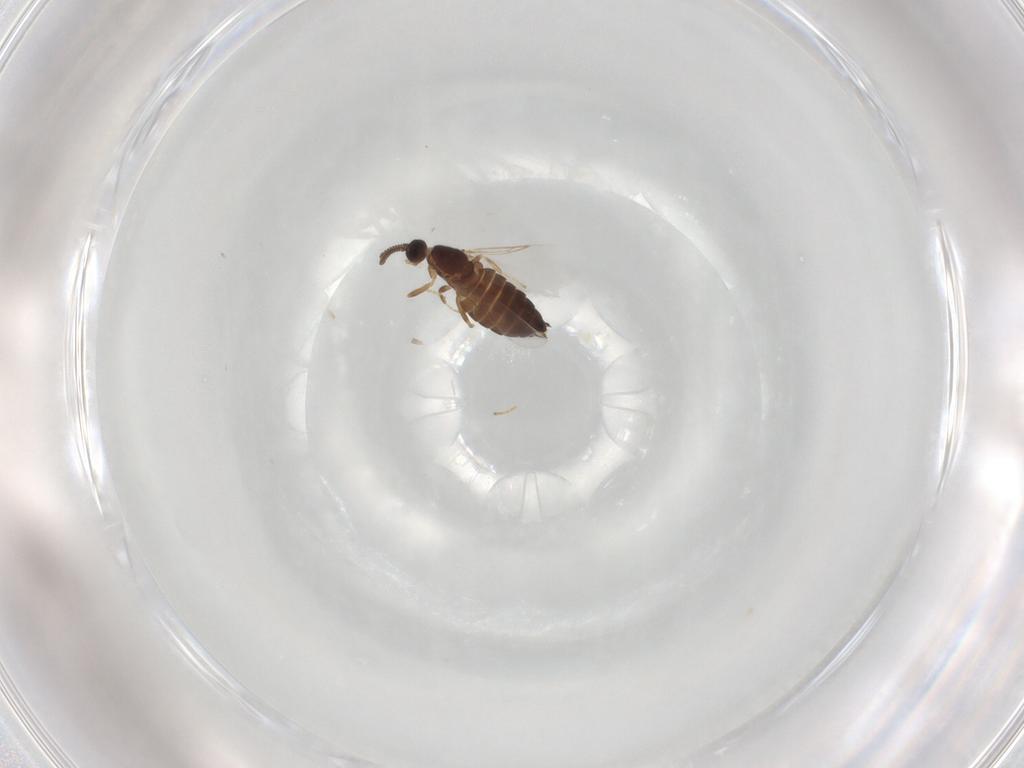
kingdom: Animalia
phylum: Arthropoda
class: Insecta
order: Diptera
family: Scatopsidae
